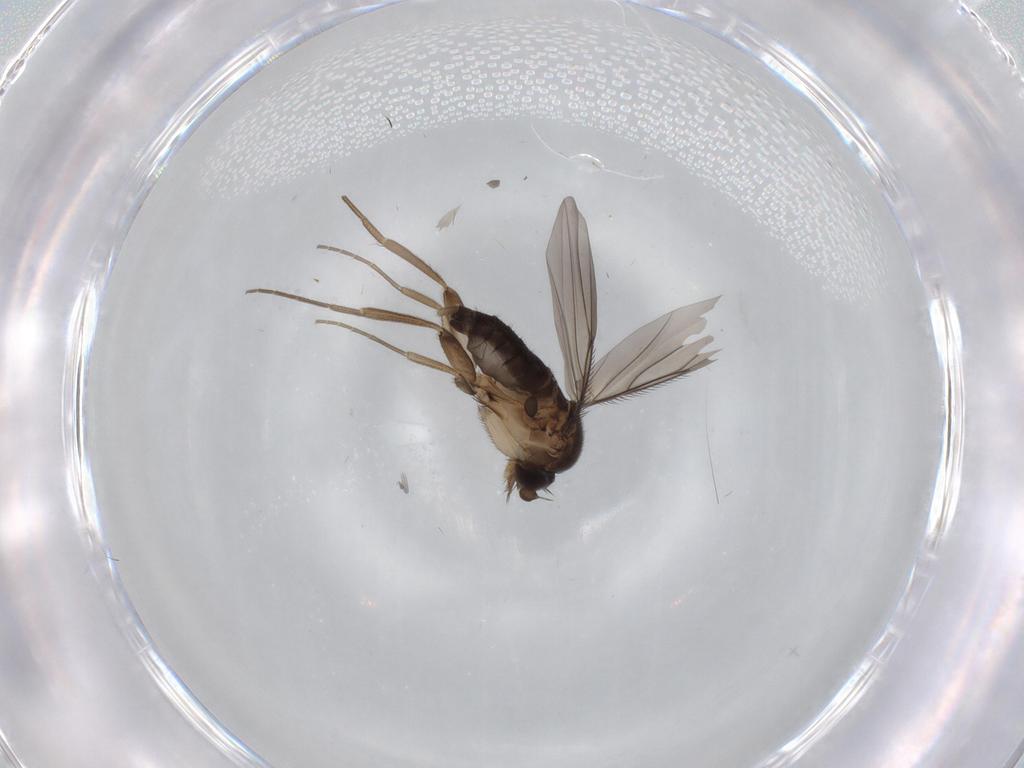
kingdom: Animalia
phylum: Arthropoda
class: Insecta
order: Diptera
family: Phoridae
